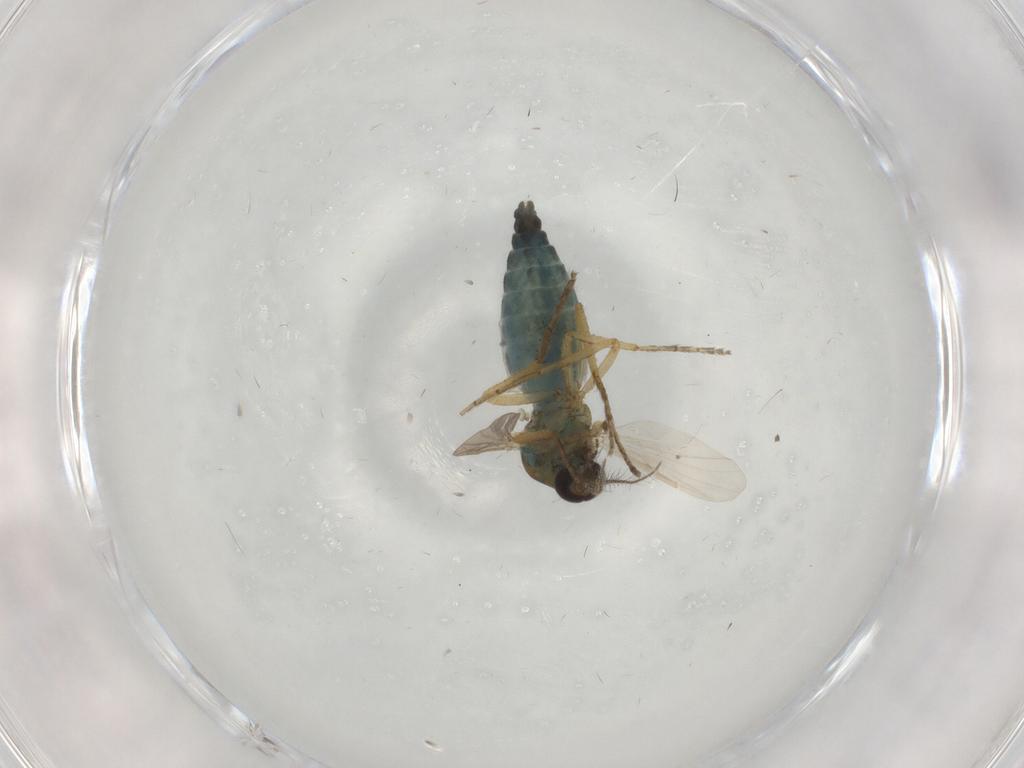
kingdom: Animalia
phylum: Arthropoda
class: Insecta
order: Diptera
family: Ceratopogonidae
